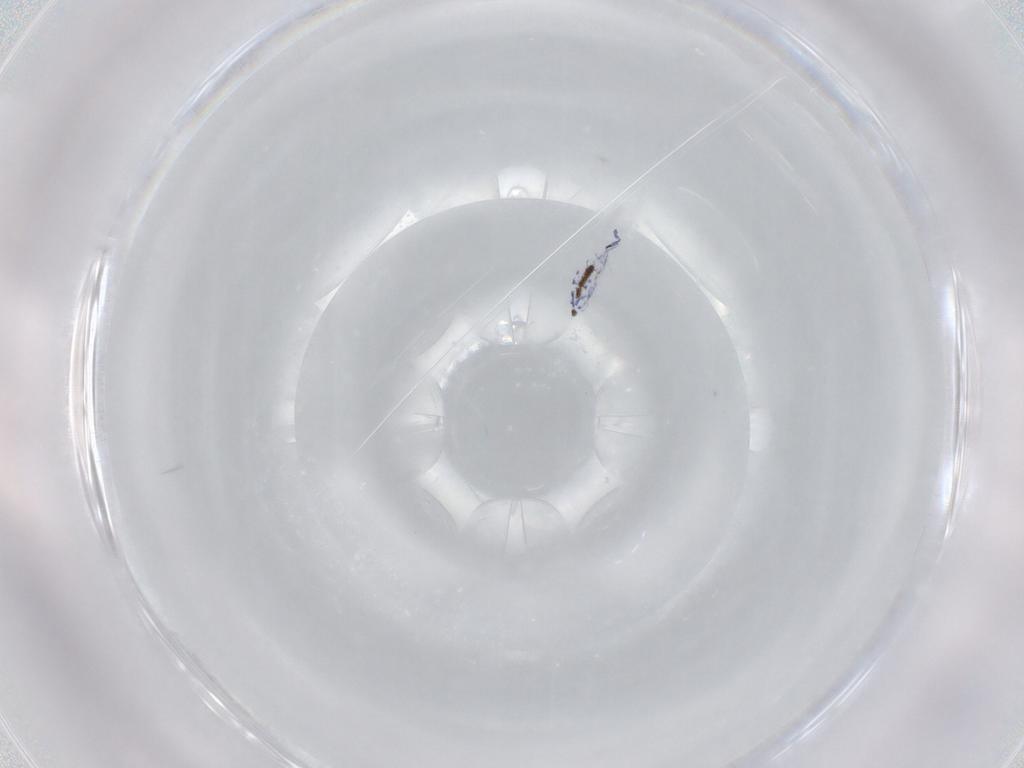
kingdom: Animalia
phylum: Arthropoda
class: Collembola
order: Entomobryomorpha
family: Entomobryidae
